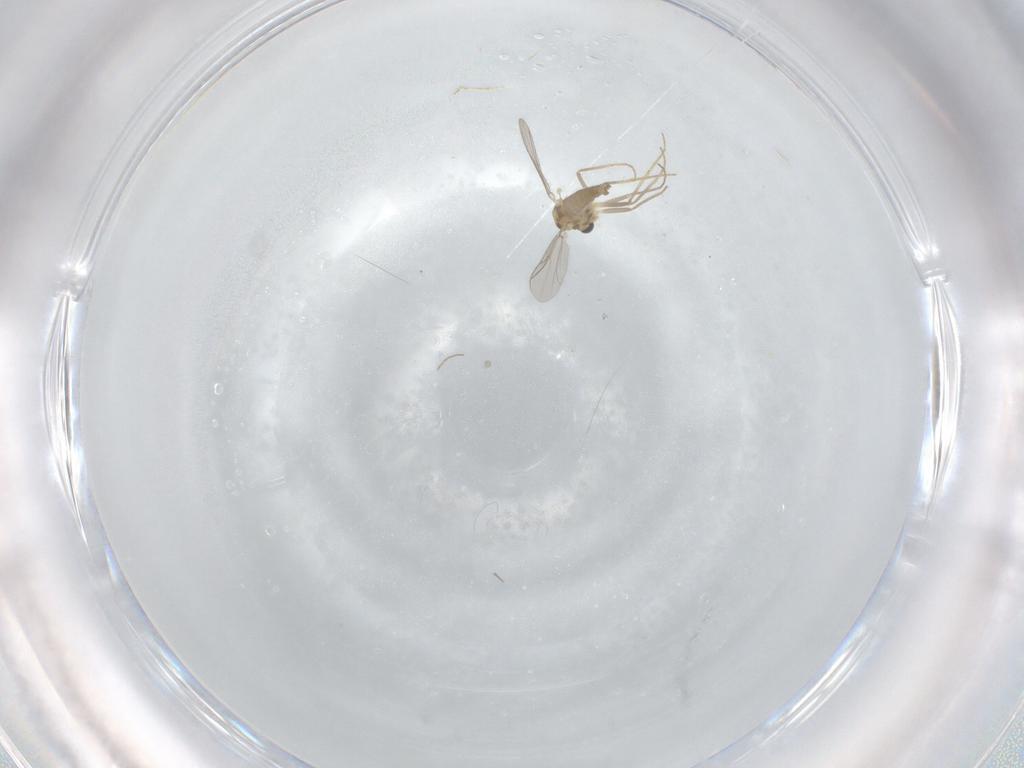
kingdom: Animalia
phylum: Arthropoda
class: Insecta
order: Diptera
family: Chironomidae
